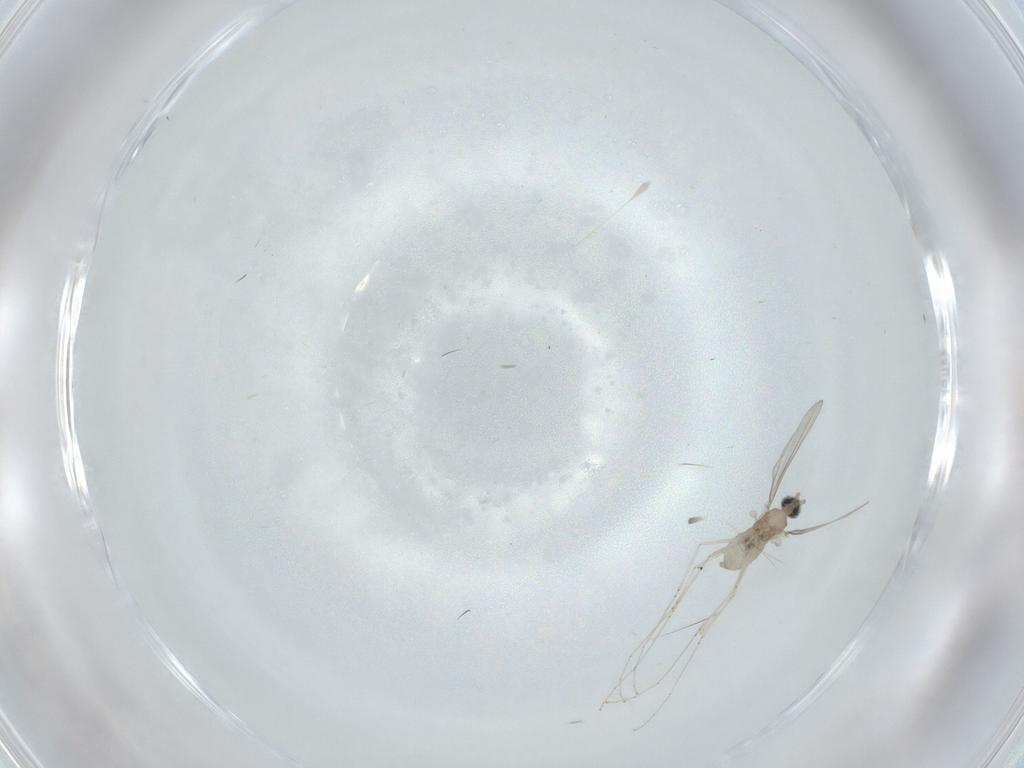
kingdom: Animalia
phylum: Arthropoda
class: Insecta
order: Diptera
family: Cecidomyiidae
